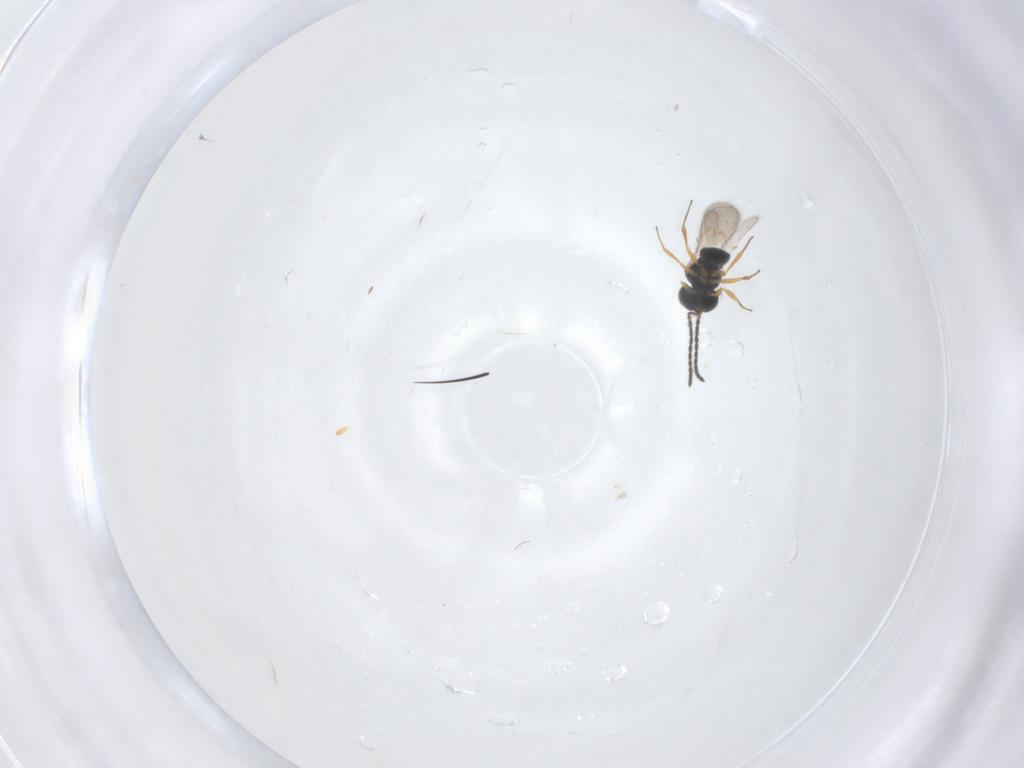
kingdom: Animalia
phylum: Arthropoda
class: Insecta
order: Hymenoptera
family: Scelionidae
